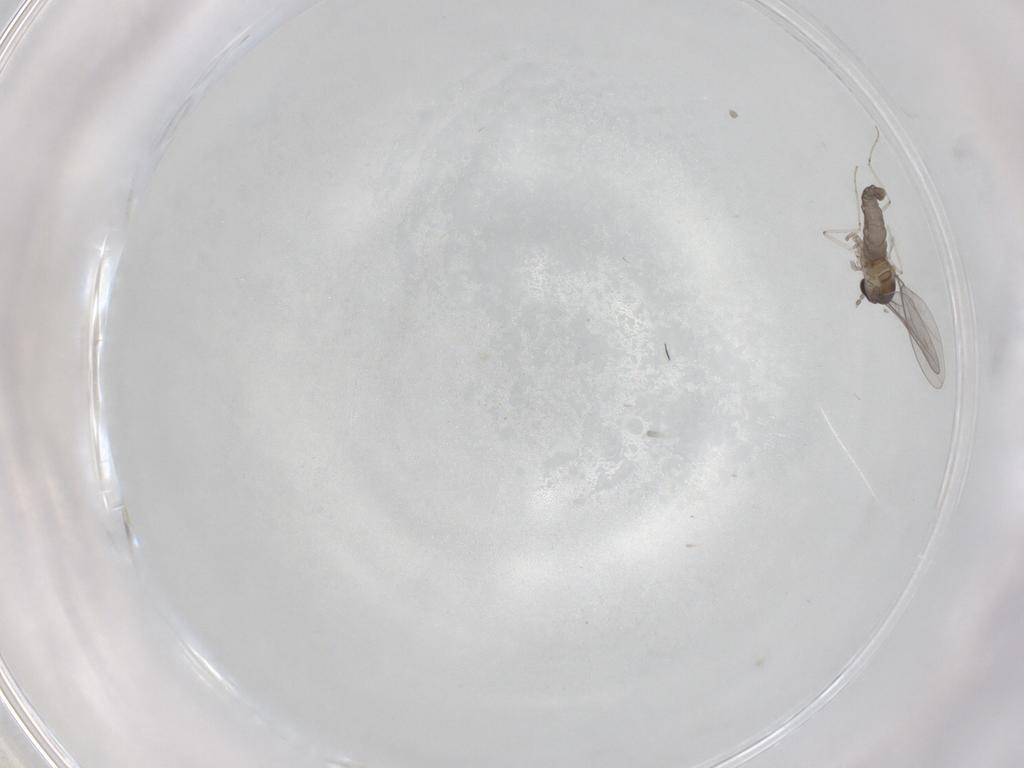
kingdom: Animalia
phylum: Arthropoda
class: Insecta
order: Diptera
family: Cecidomyiidae
